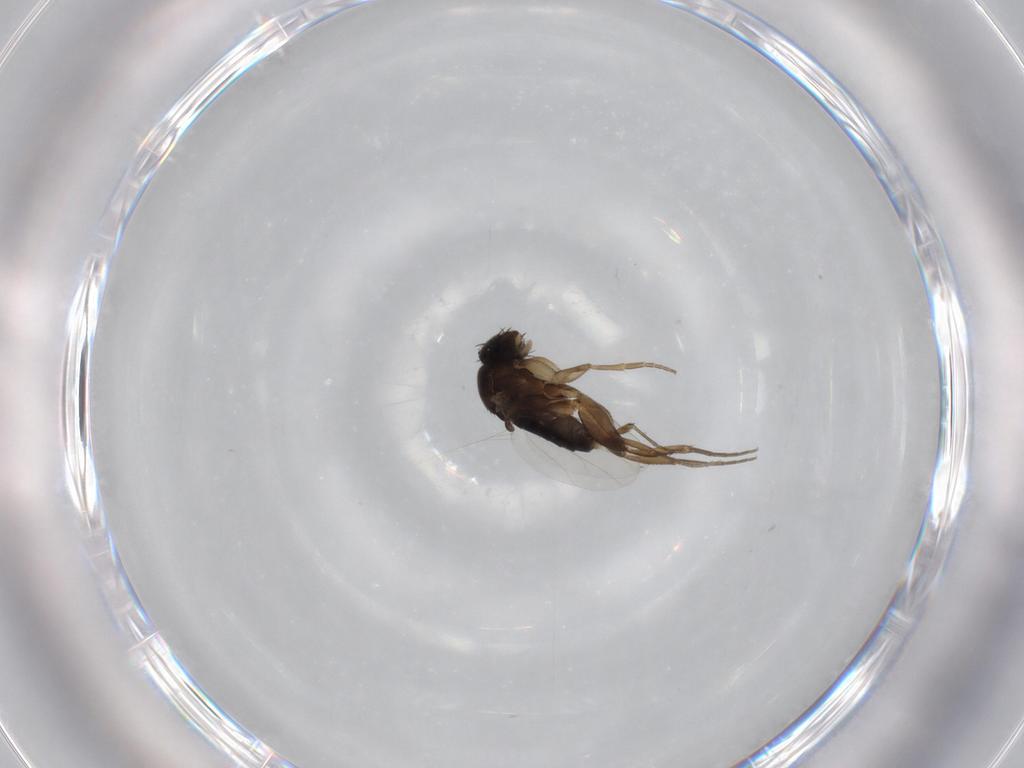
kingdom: Animalia
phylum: Arthropoda
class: Insecta
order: Diptera
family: Phoridae
